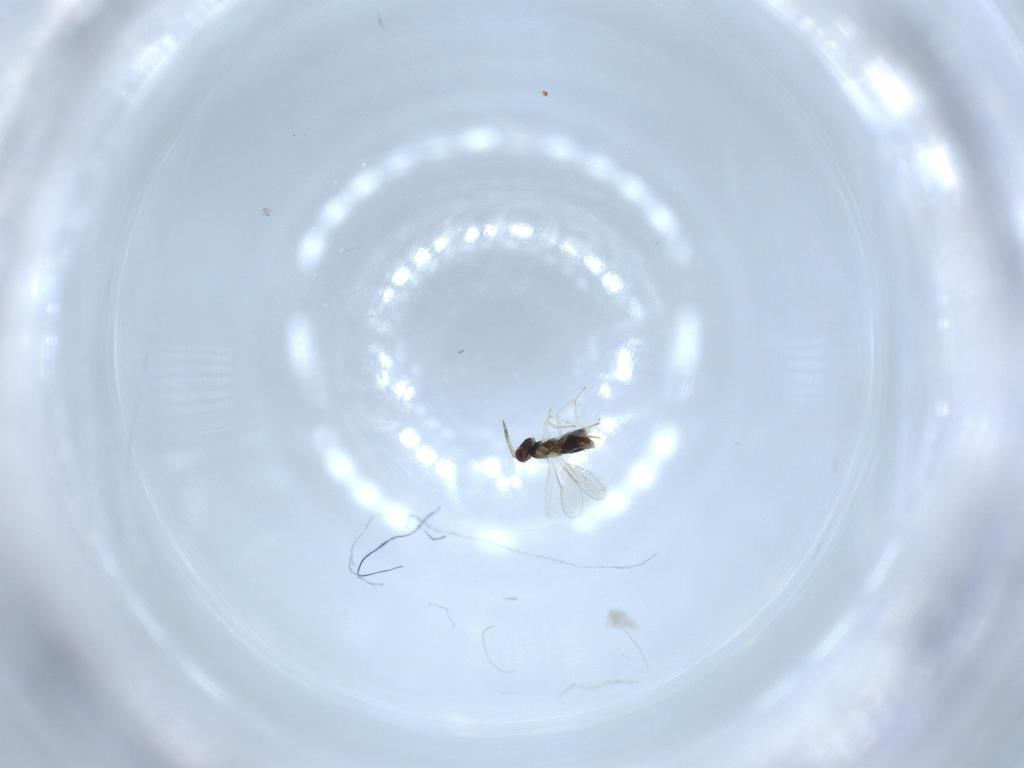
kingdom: Animalia
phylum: Arthropoda
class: Insecta
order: Hymenoptera
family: Aphelinidae
